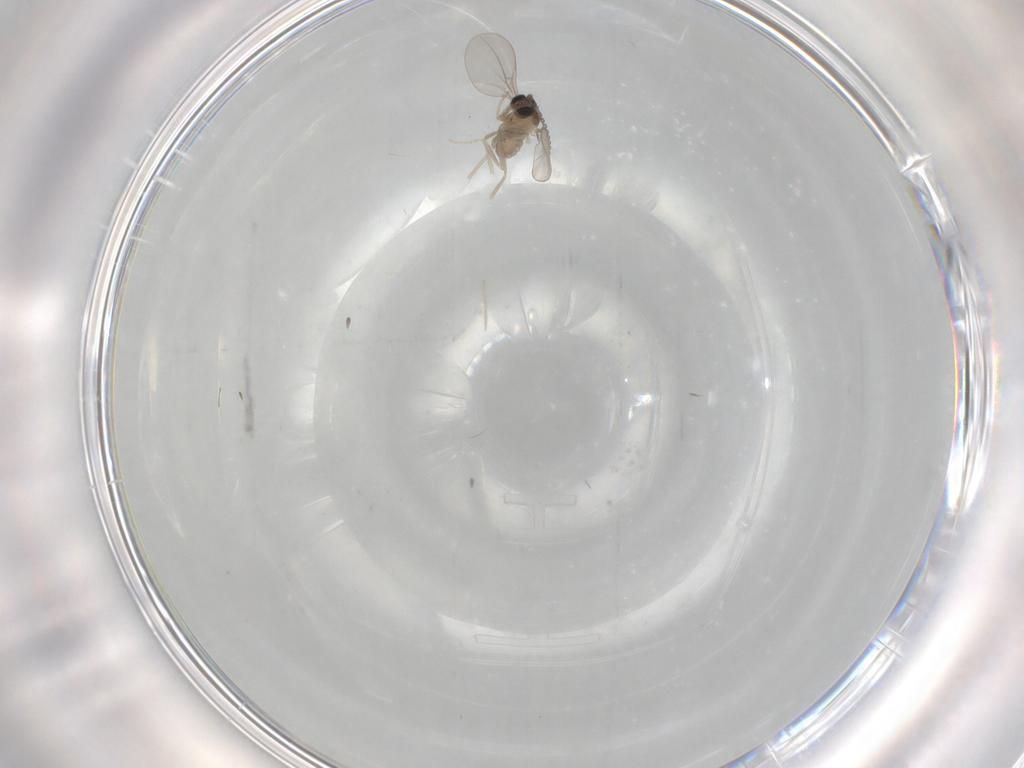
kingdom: Animalia
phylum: Arthropoda
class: Insecta
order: Diptera
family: Cecidomyiidae
